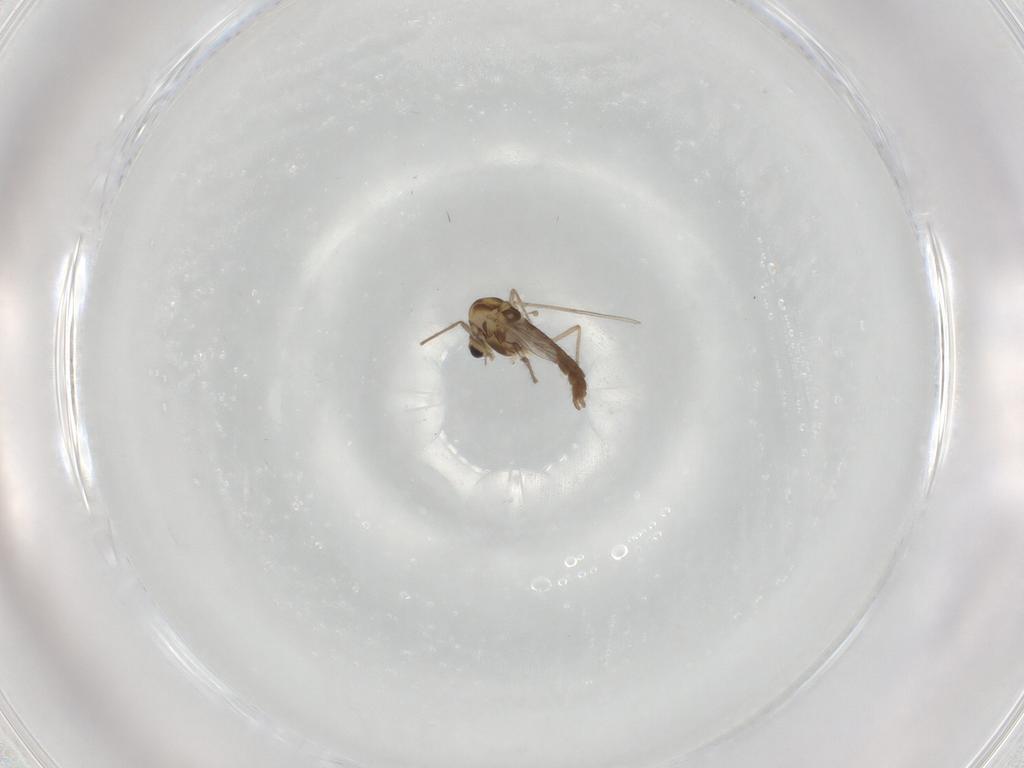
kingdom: Animalia
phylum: Arthropoda
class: Insecta
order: Diptera
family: Chironomidae
